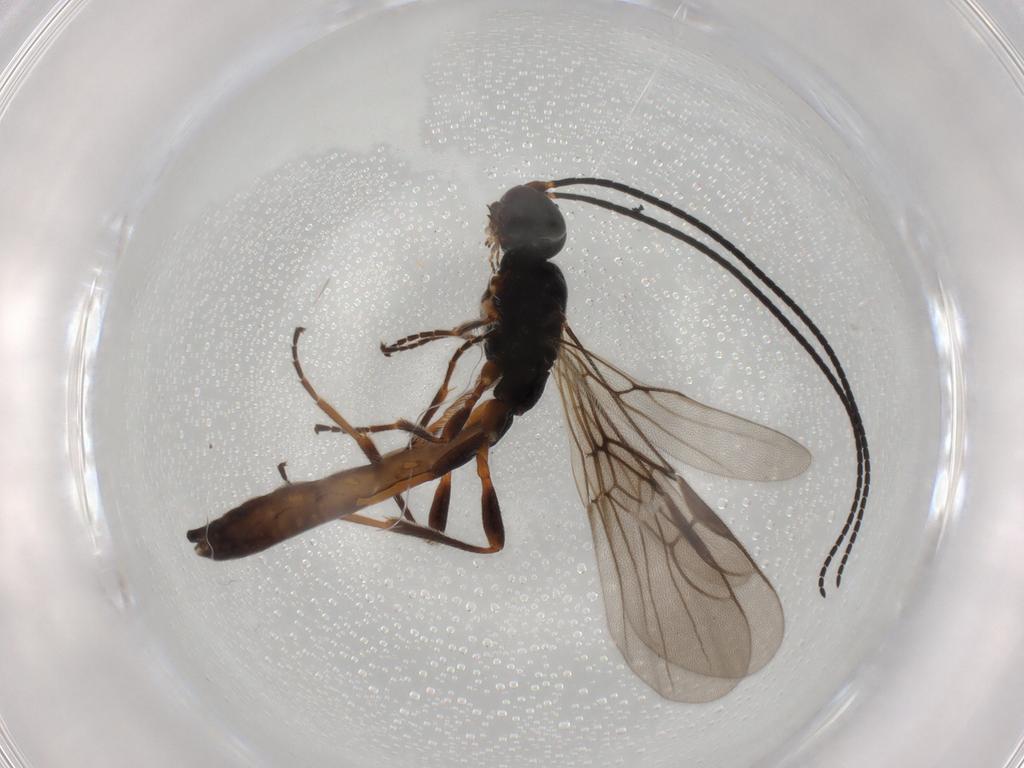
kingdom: Animalia
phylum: Arthropoda
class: Insecta
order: Hymenoptera
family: Braconidae
